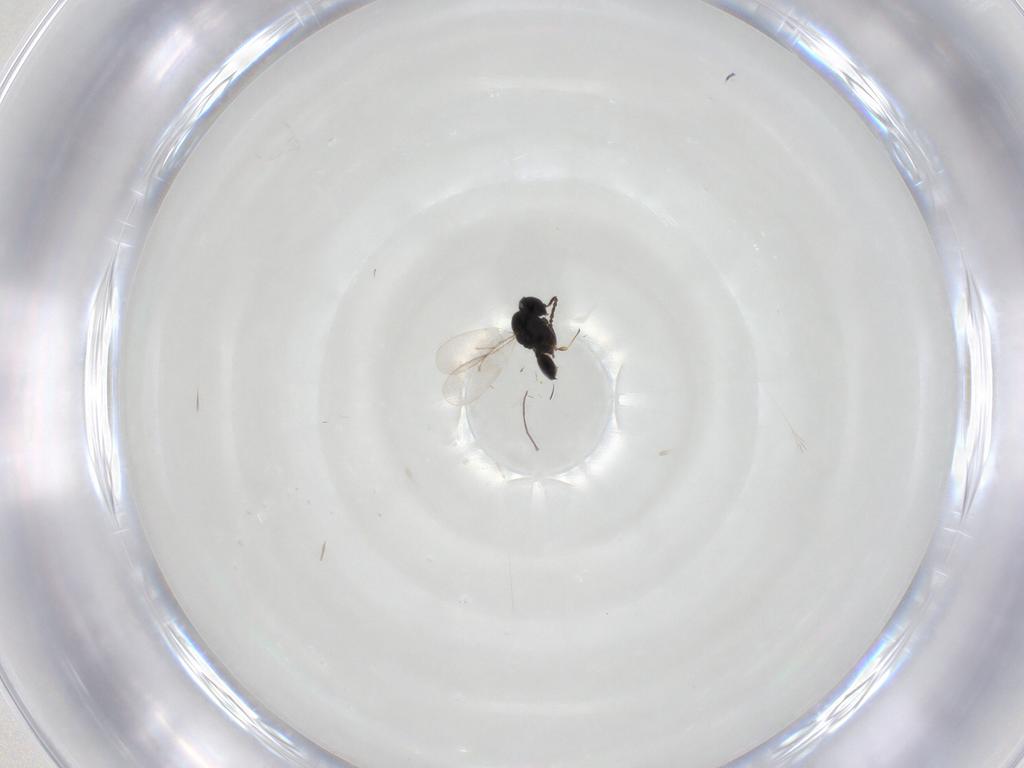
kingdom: Animalia
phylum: Arthropoda
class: Insecta
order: Hymenoptera
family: Scelionidae
